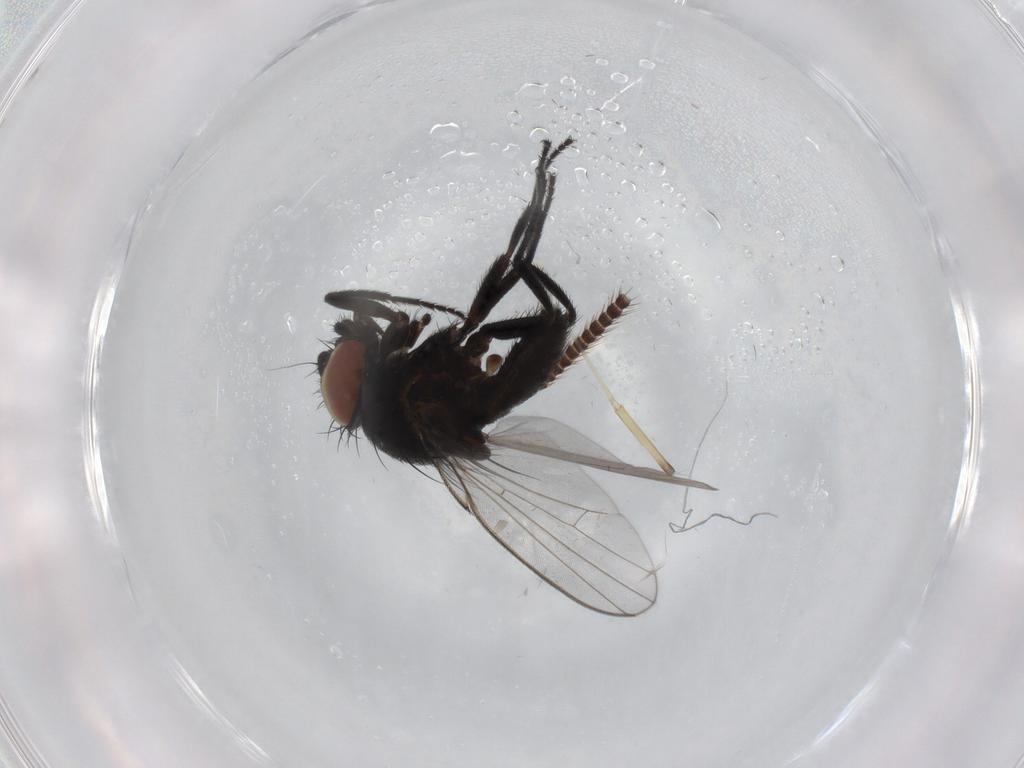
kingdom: Animalia
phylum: Arthropoda
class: Insecta
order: Diptera
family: Milichiidae
